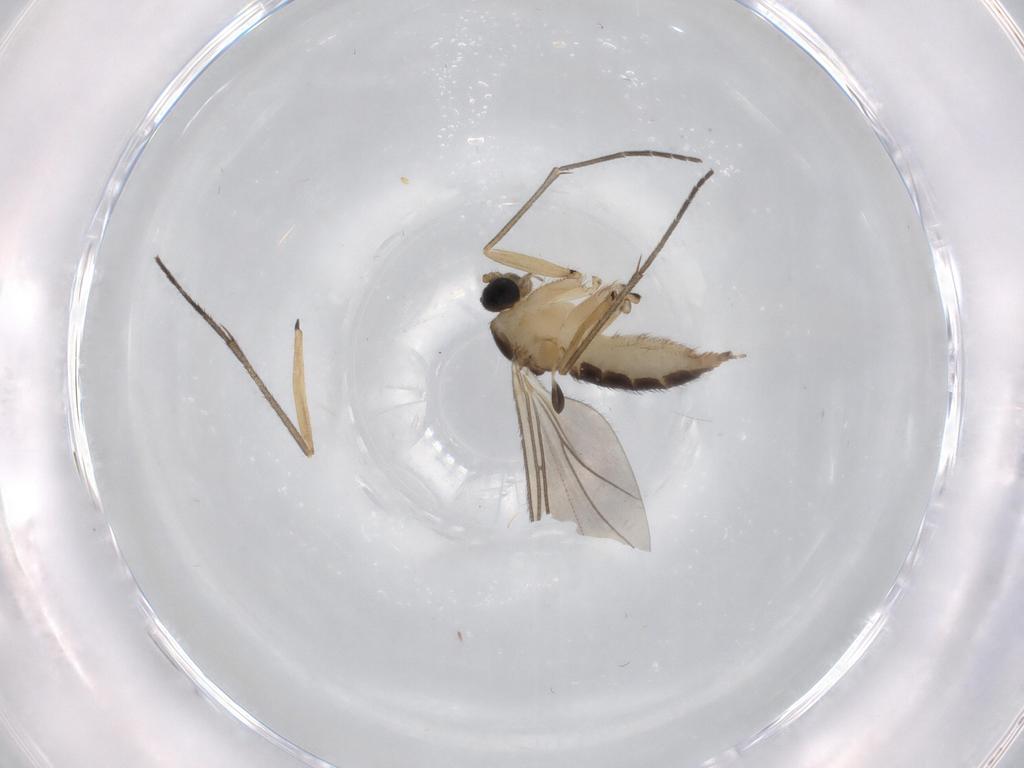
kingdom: Animalia
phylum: Arthropoda
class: Insecta
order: Diptera
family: Sciaridae
